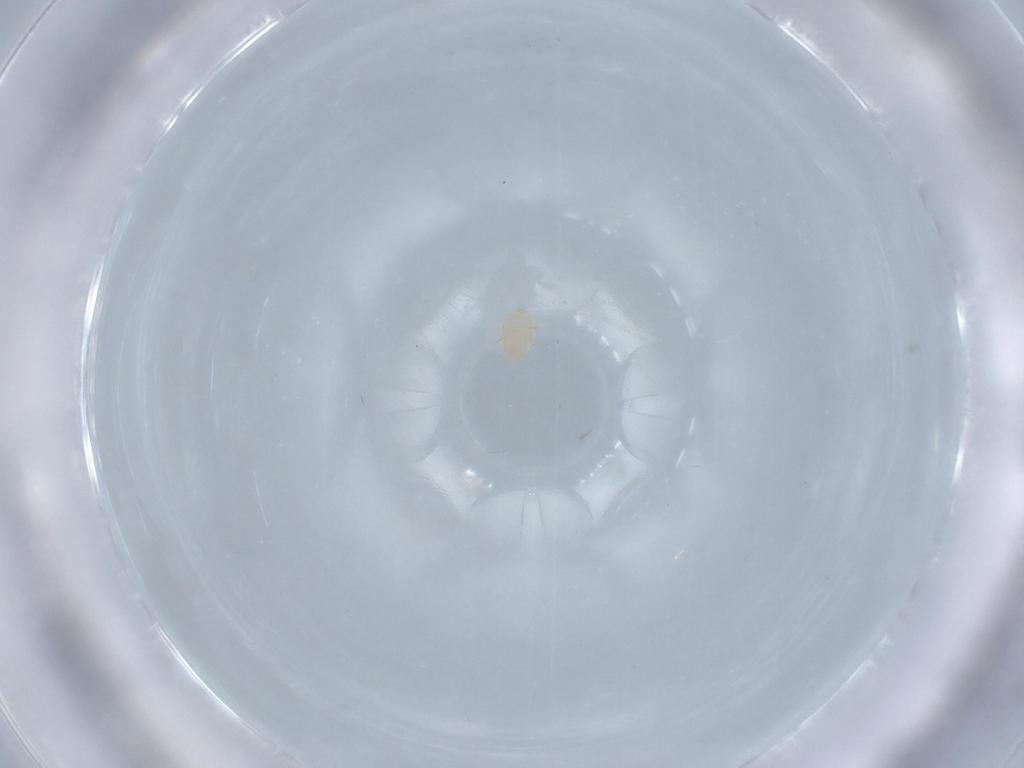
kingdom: Animalia
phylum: Arthropoda
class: Arachnida
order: Trombidiformes
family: Trombidiidae
